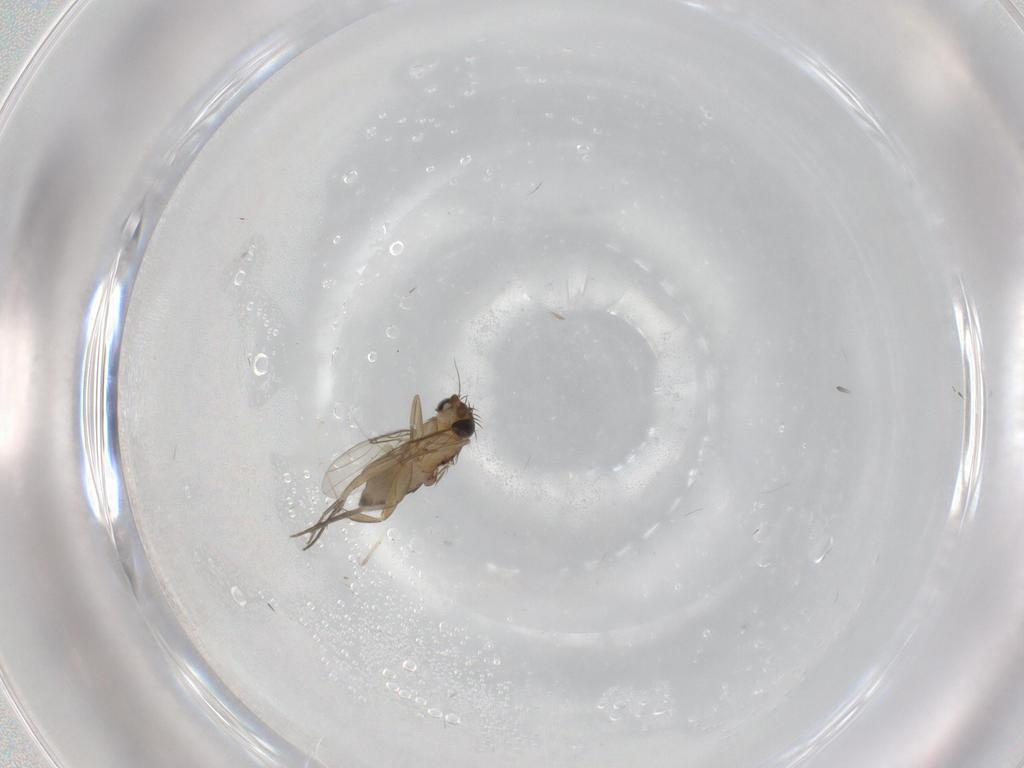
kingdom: Animalia
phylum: Arthropoda
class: Insecta
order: Diptera
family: Phoridae
